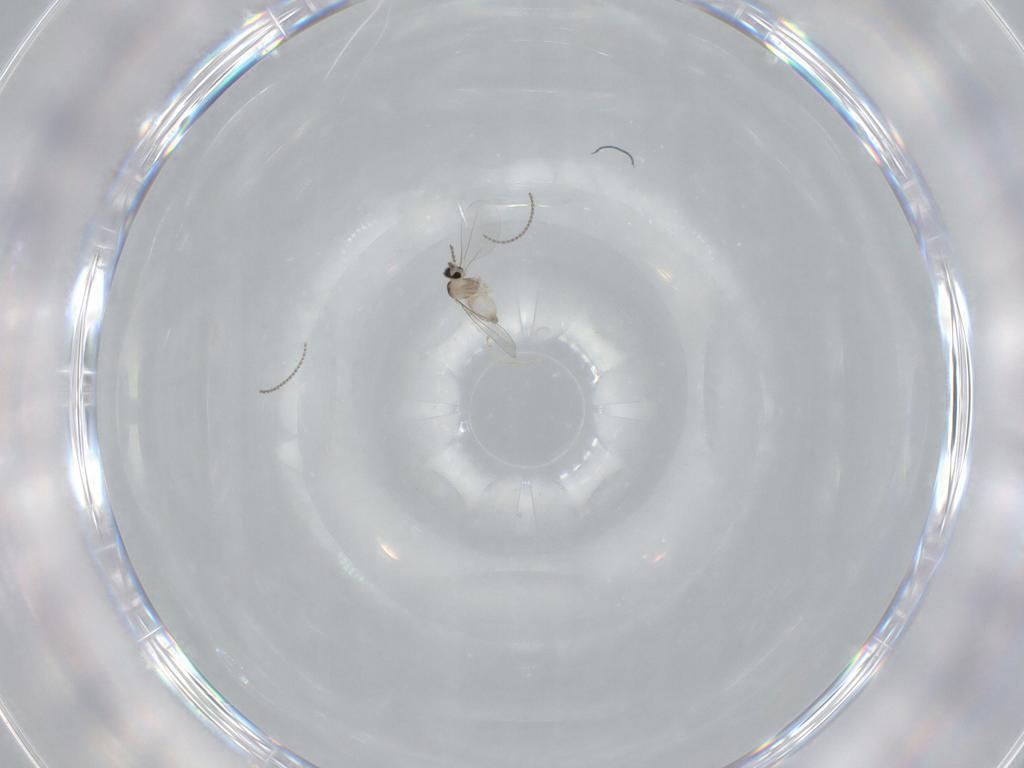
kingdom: Animalia
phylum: Arthropoda
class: Insecta
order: Diptera
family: Cecidomyiidae
